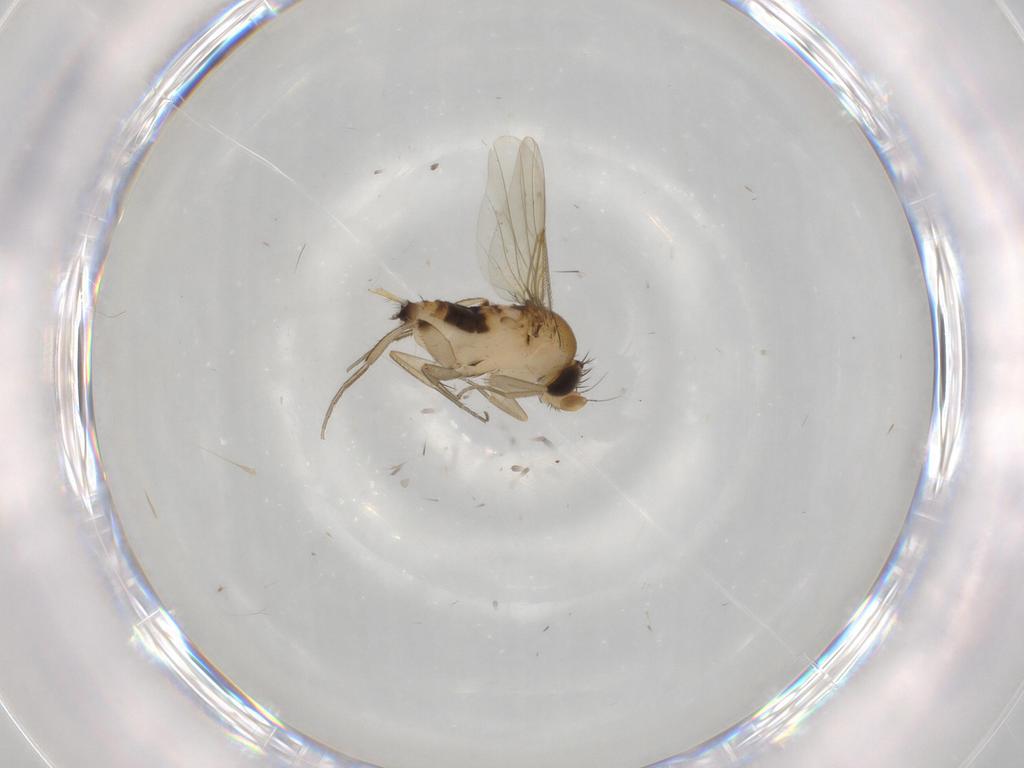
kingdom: Animalia
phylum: Arthropoda
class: Insecta
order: Diptera
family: Phoridae
